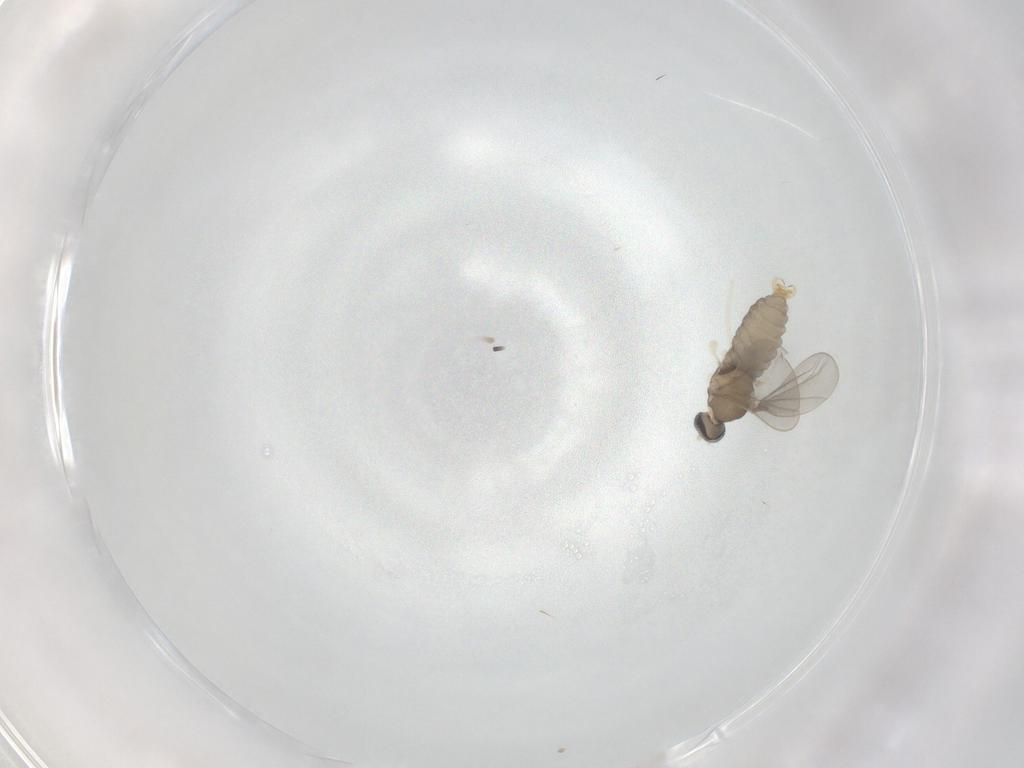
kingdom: Animalia
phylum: Arthropoda
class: Insecta
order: Diptera
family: Cecidomyiidae
